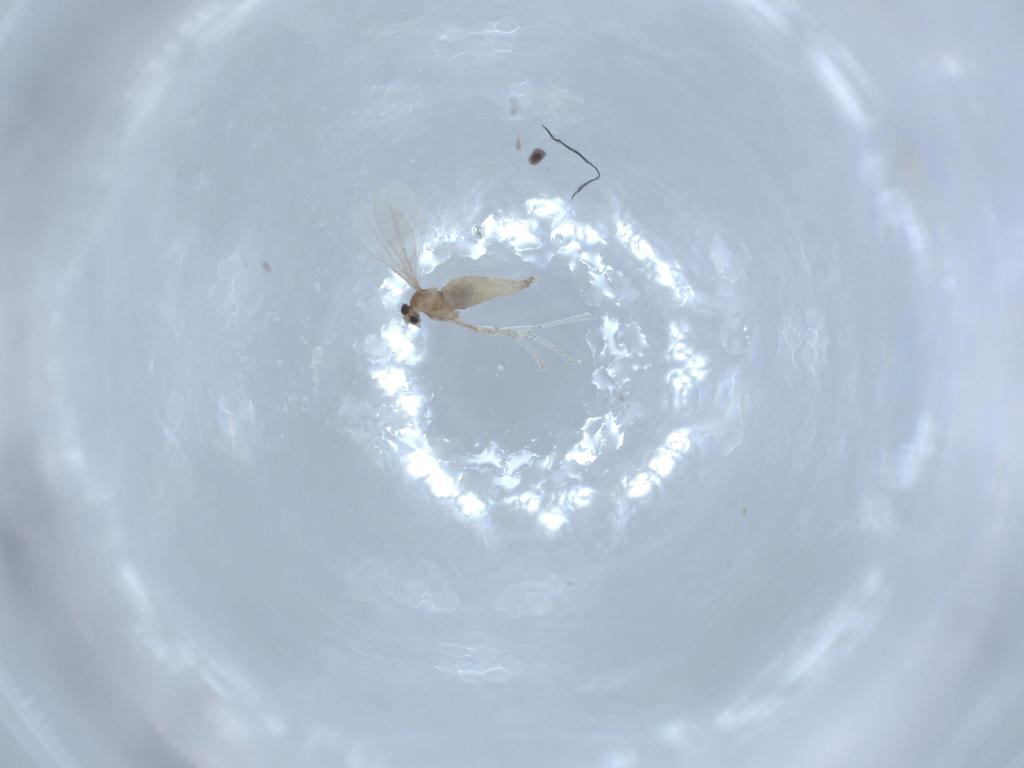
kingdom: Animalia
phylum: Arthropoda
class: Insecta
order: Diptera
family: Cecidomyiidae
